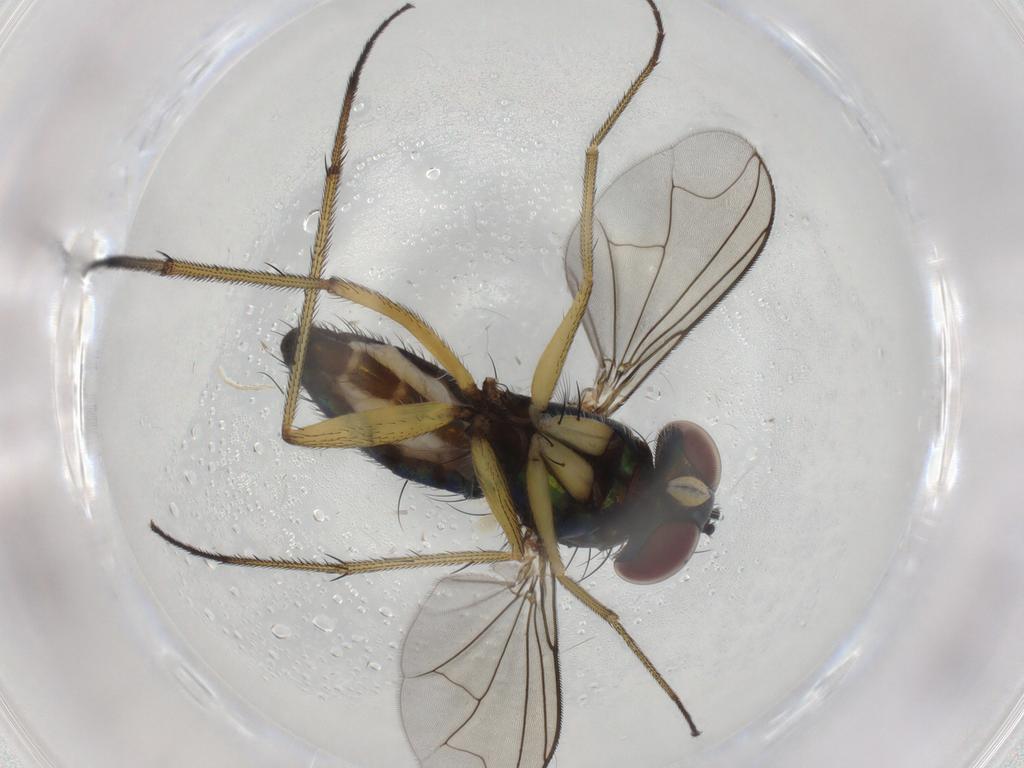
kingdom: Animalia
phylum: Arthropoda
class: Insecta
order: Diptera
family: Dolichopodidae
